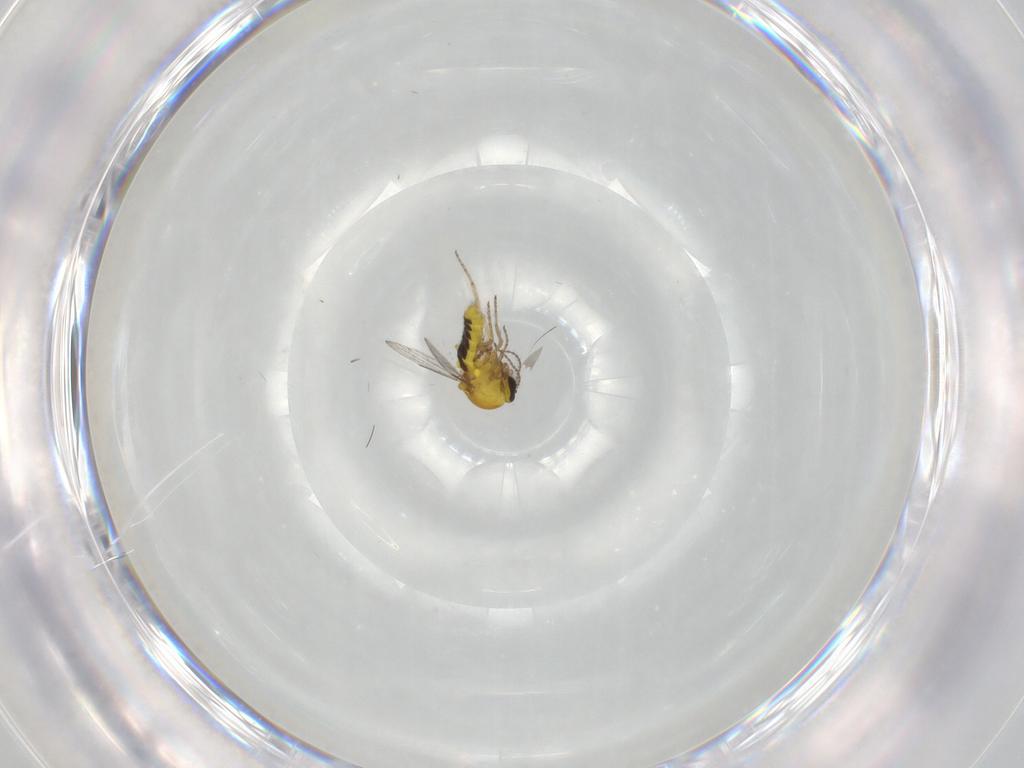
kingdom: Animalia
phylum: Arthropoda
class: Insecta
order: Diptera
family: Ceratopogonidae
